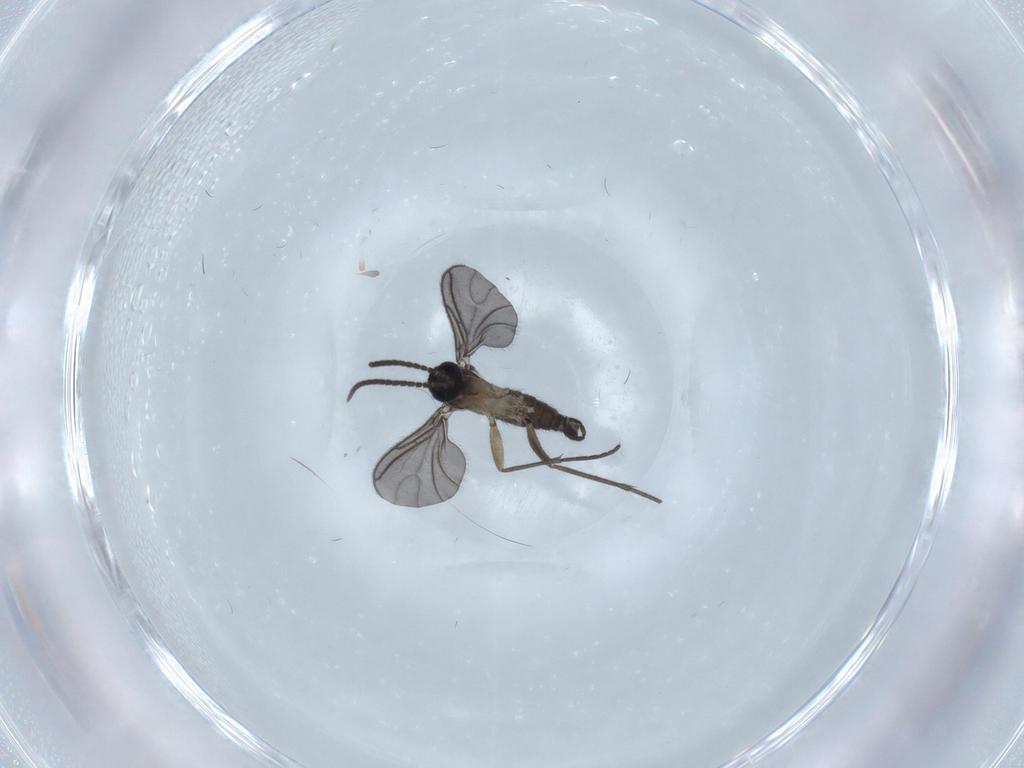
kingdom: Animalia
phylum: Arthropoda
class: Insecta
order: Diptera
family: Sciaridae
